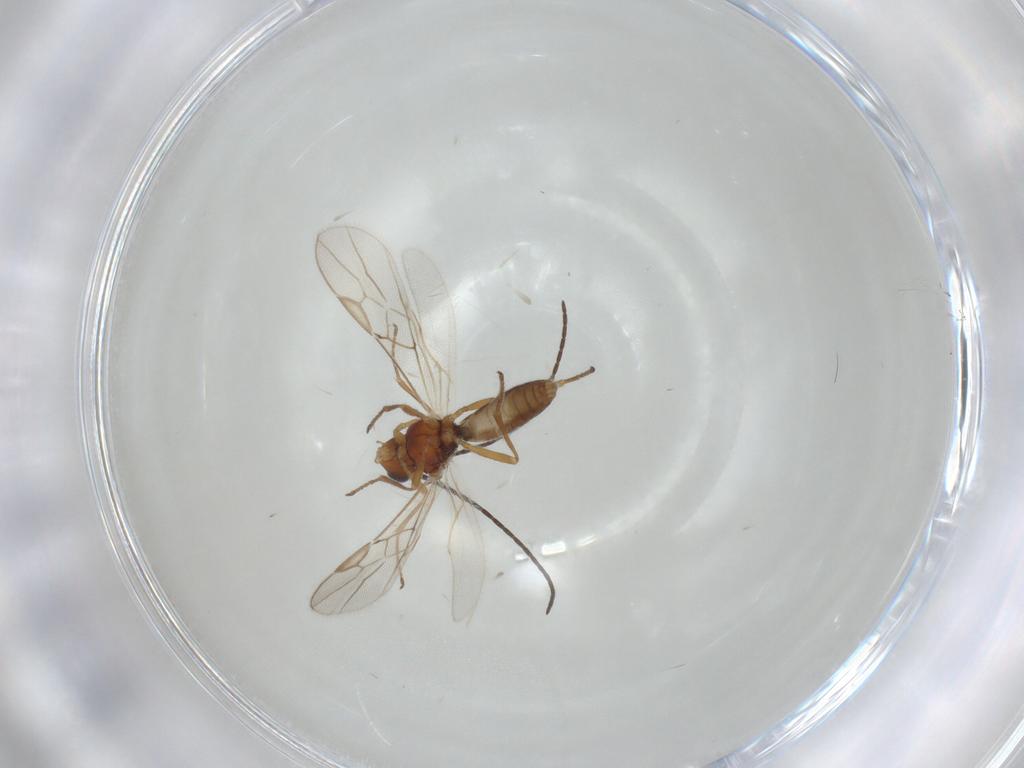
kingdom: Animalia
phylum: Arthropoda
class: Insecta
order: Hymenoptera
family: Braconidae
